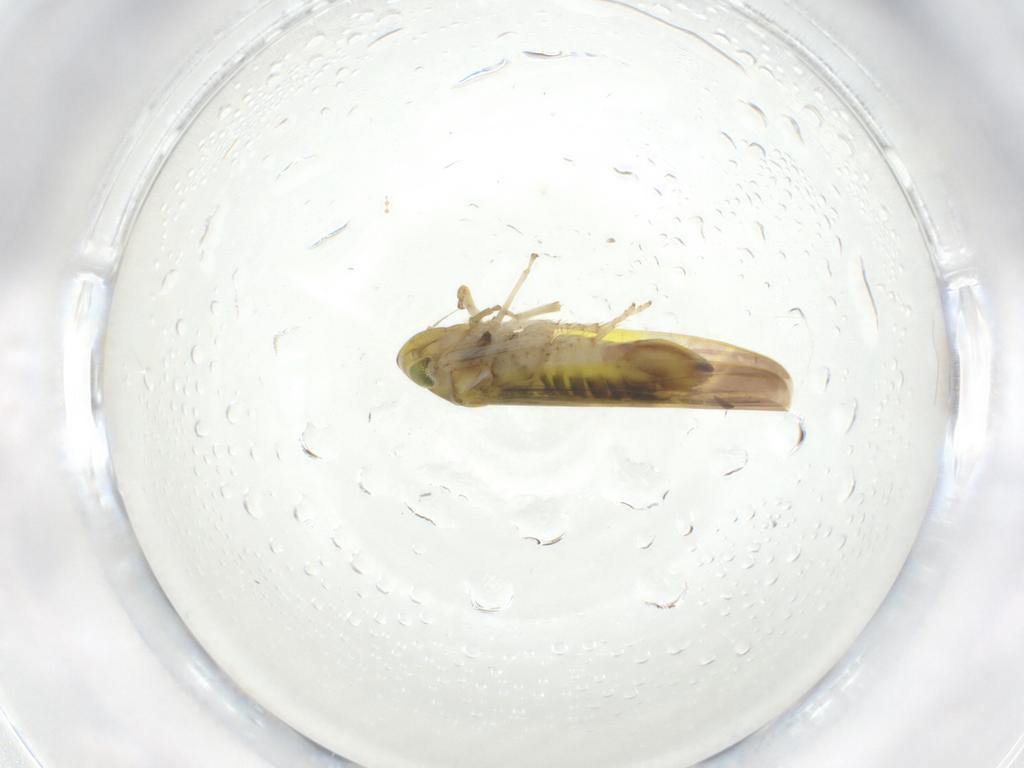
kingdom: Animalia
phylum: Arthropoda
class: Insecta
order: Hemiptera
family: Cicadellidae
